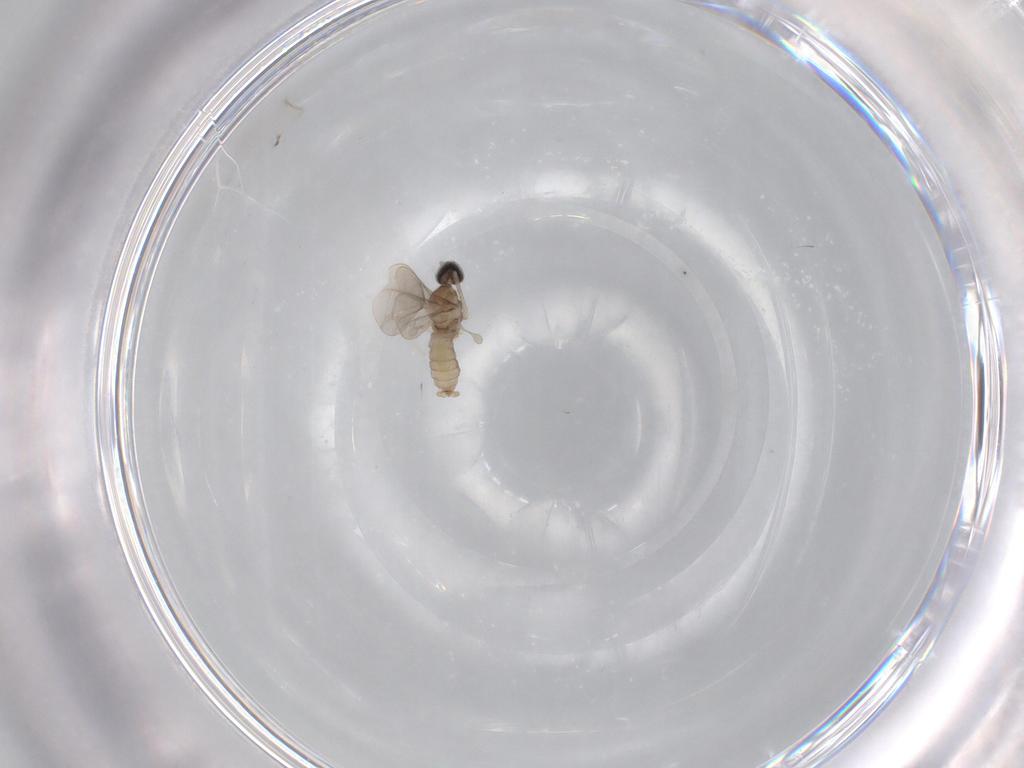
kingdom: Animalia
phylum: Arthropoda
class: Insecta
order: Diptera
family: Cecidomyiidae
